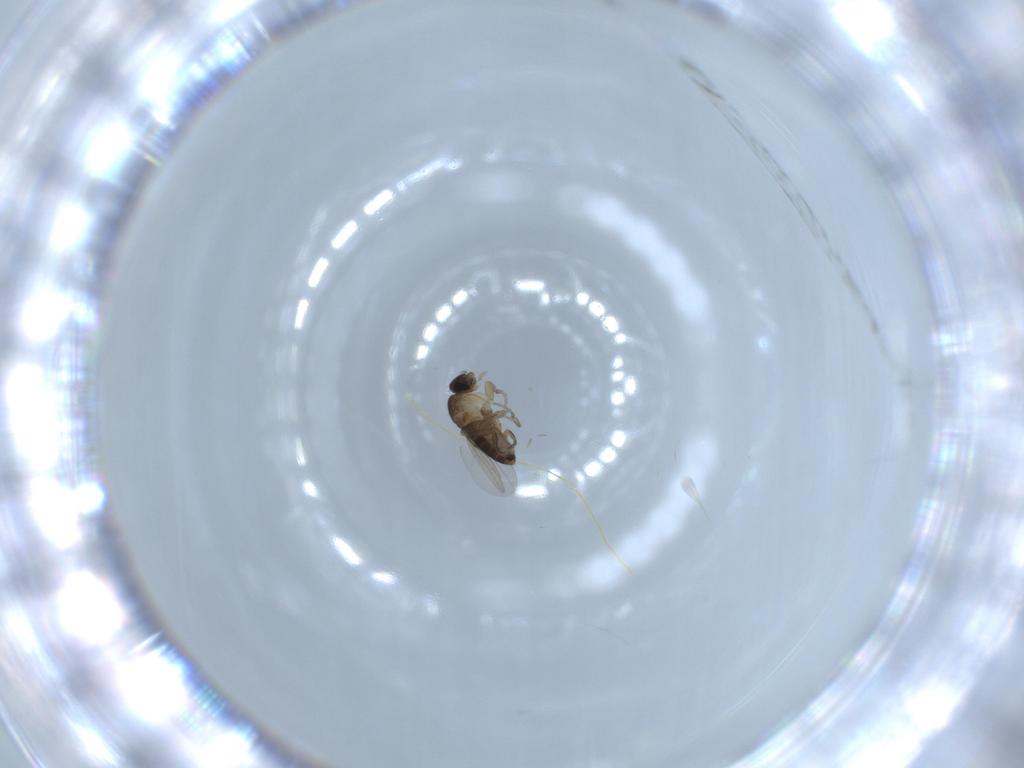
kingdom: Animalia
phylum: Arthropoda
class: Insecta
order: Diptera
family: Phoridae
